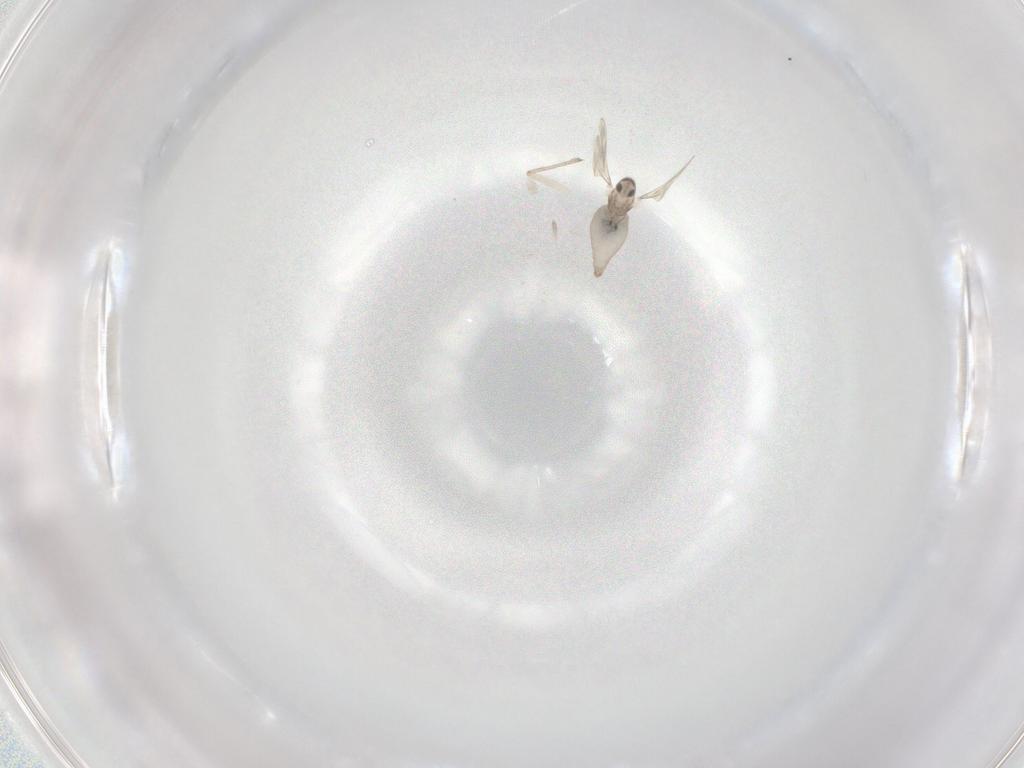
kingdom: Animalia
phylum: Arthropoda
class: Insecta
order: Diptera
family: Cecidomyiidae
